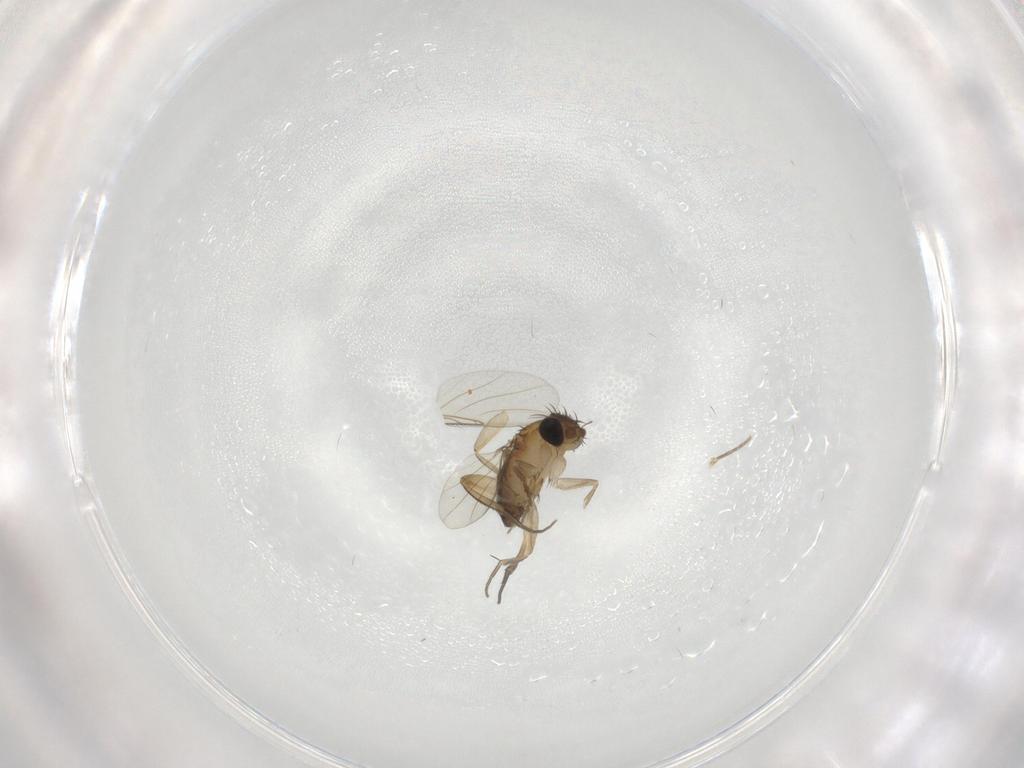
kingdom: Animalia
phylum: Arthropoda
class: Insecta
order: Diptera
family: Phoridae
